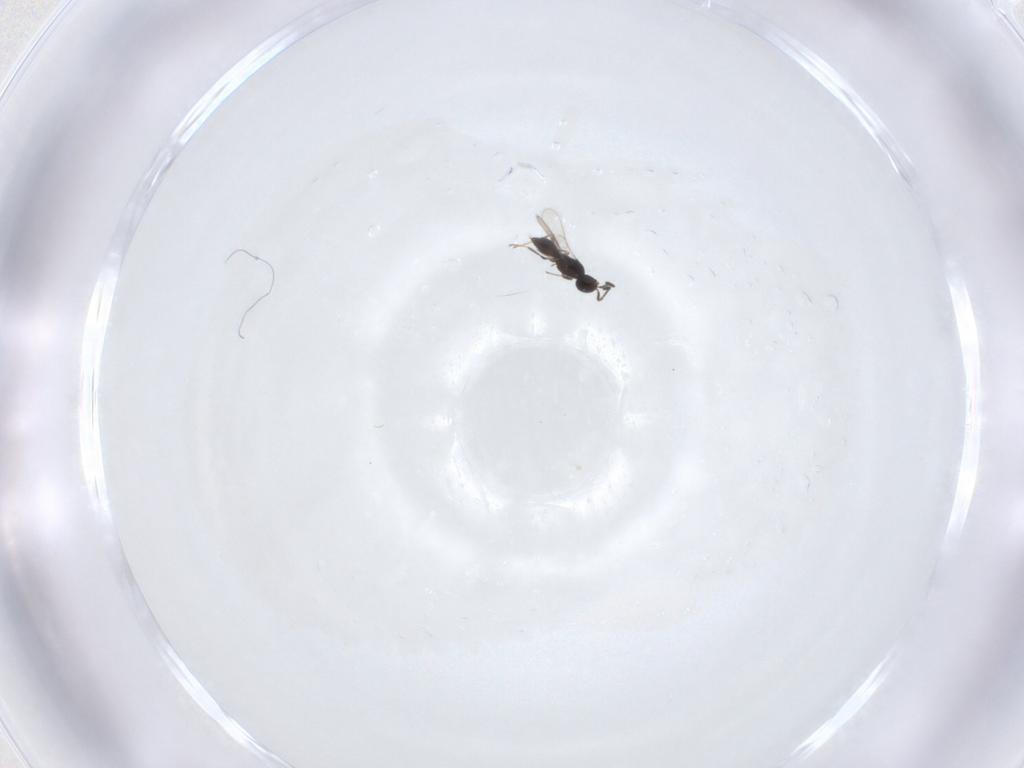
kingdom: Animalia
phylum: Arthropoda
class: Insecta
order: Hymenoptera
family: Scelionidae
